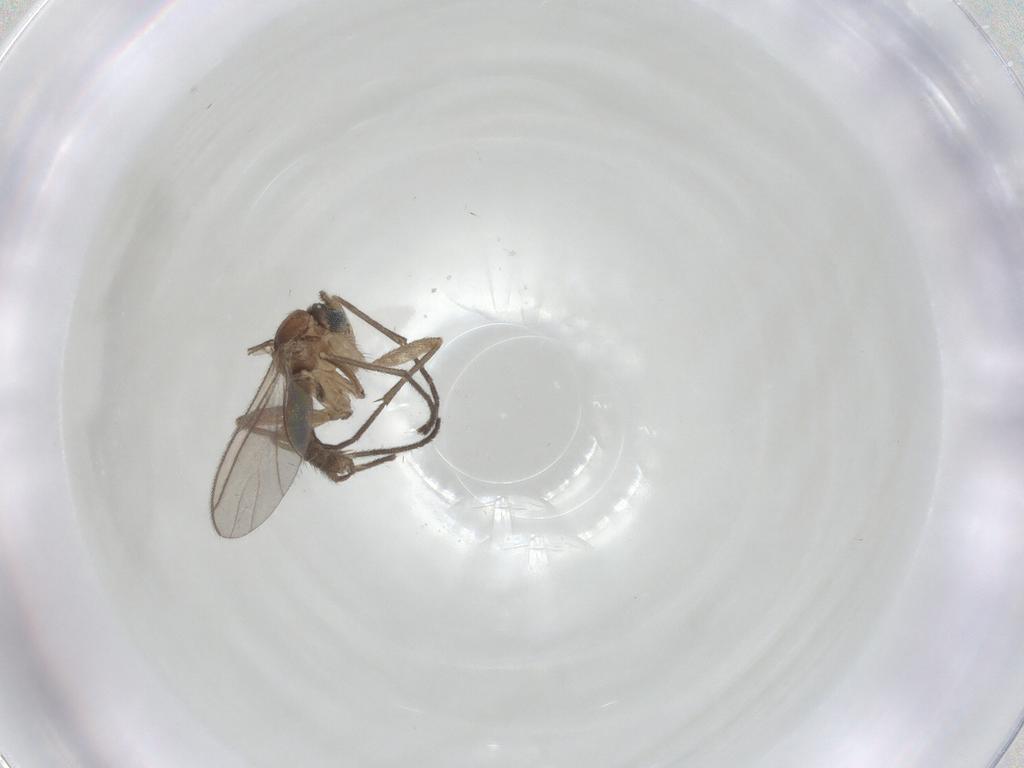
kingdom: Animalia
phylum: Arthropoda
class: Insecta
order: Diptera
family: Sciaridae
